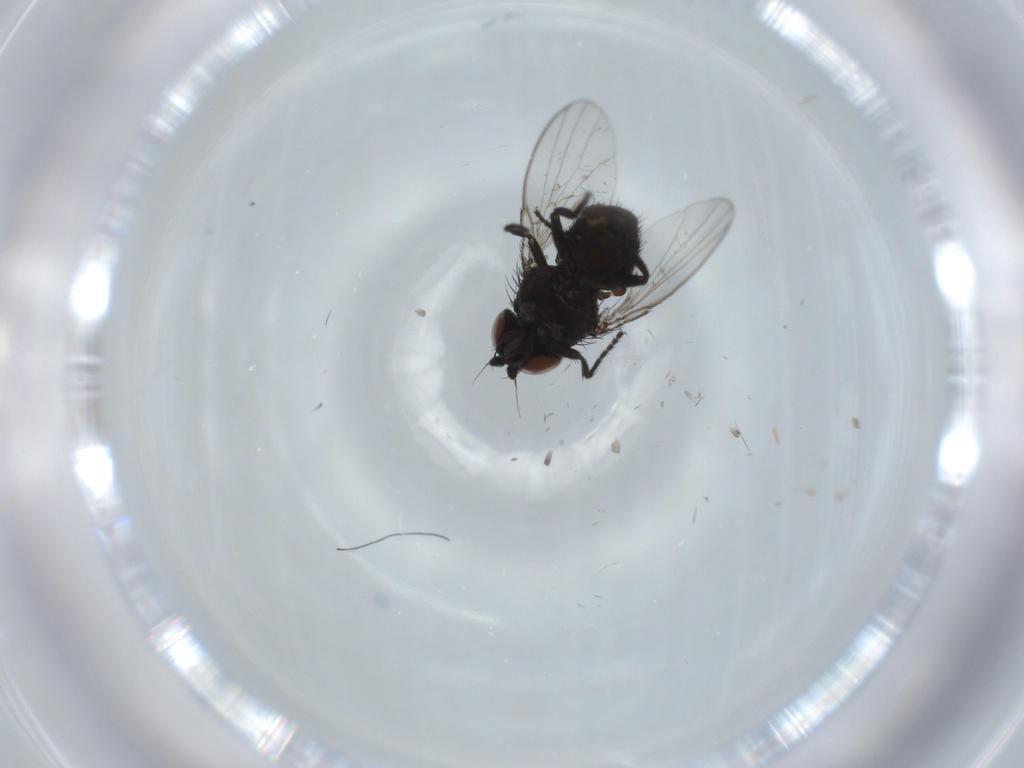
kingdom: Animalia
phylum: Arthropoda
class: Insecta
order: Diptera
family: Milichiidae
